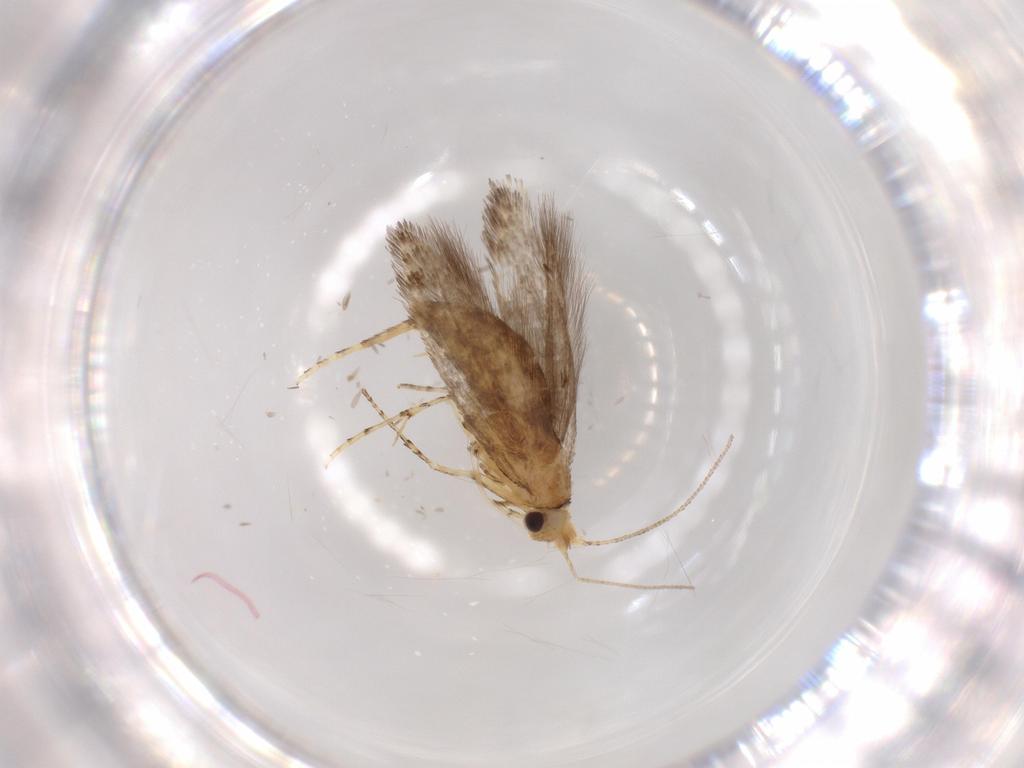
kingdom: Animalia
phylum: Arthropoda
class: Insecta
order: Lepidoptera
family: Argyresthiidae
